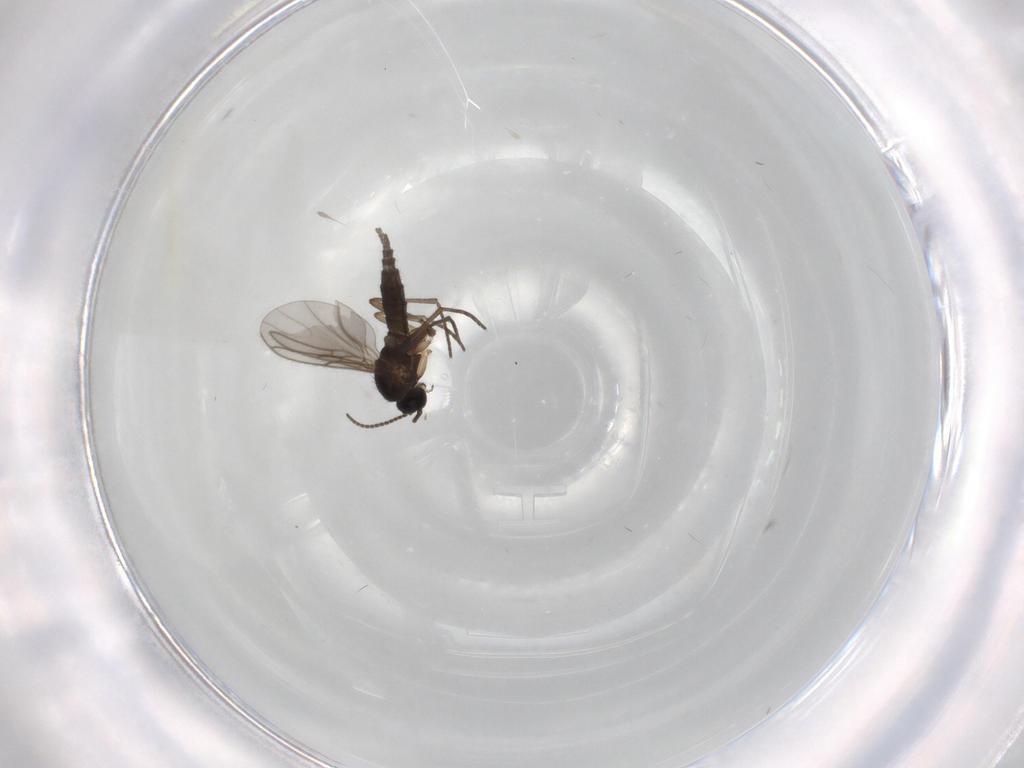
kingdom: Animalia
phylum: Arthropoda
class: Insecta
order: Diptera
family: Sciaridae
